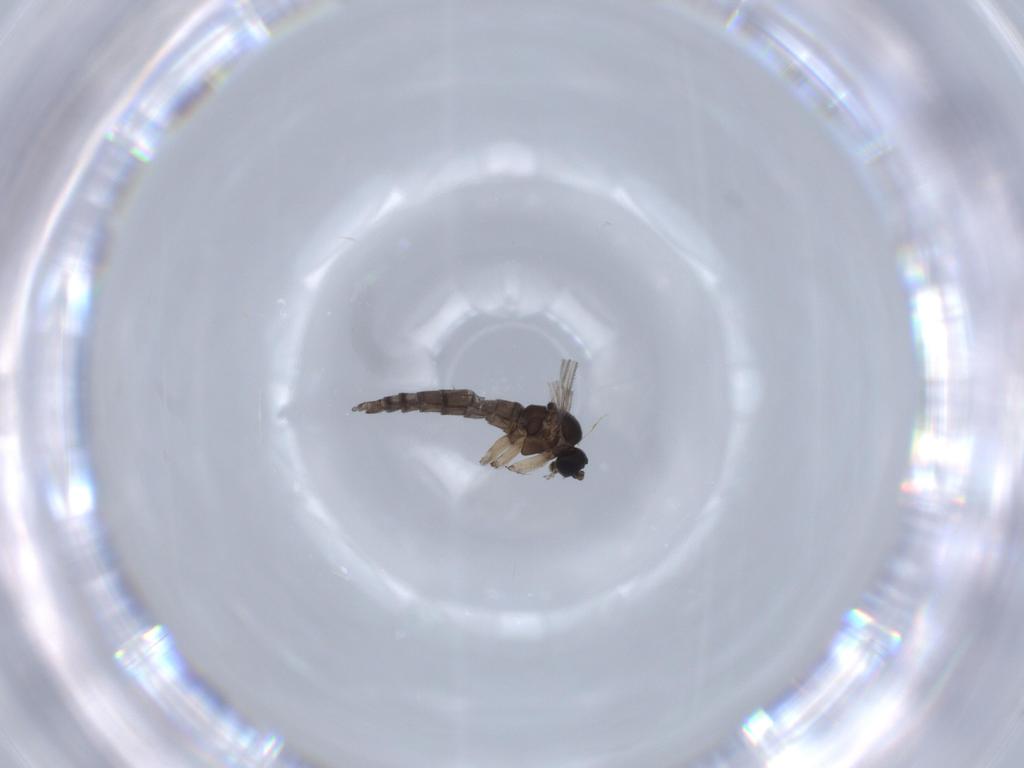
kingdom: Animalia
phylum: Arthropoda
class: Insecta
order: Diptera
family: Sciaridae
